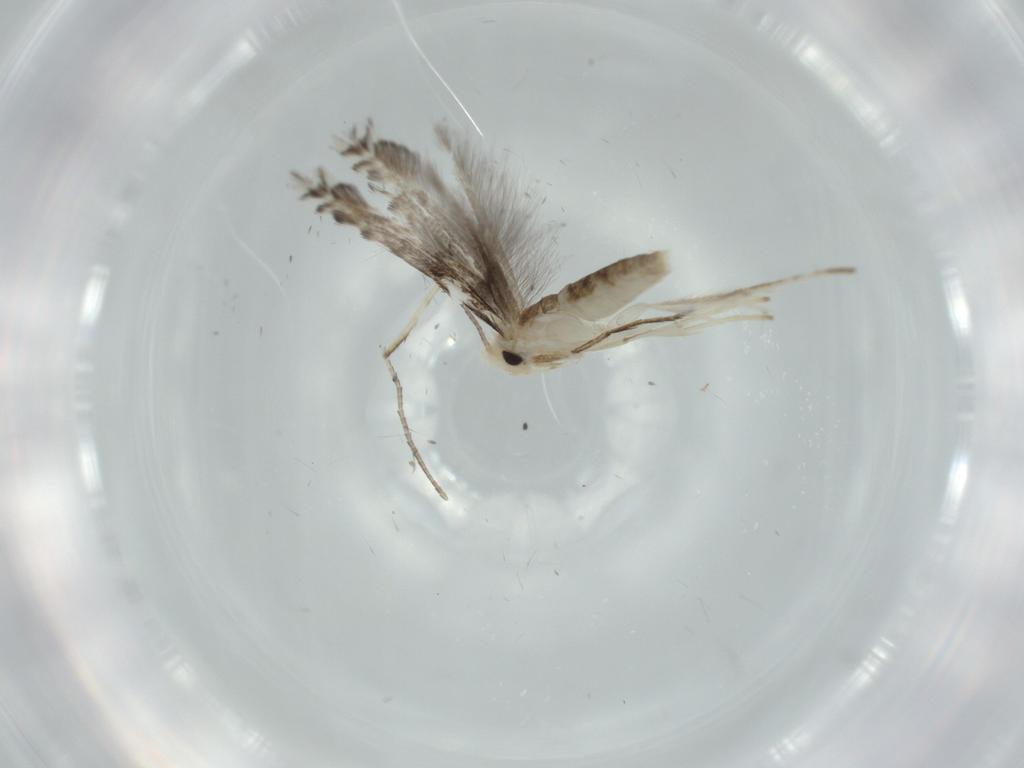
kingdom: Animalia
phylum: Arthropoda
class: Insecta
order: Lepidoptera
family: Gracillariidae
